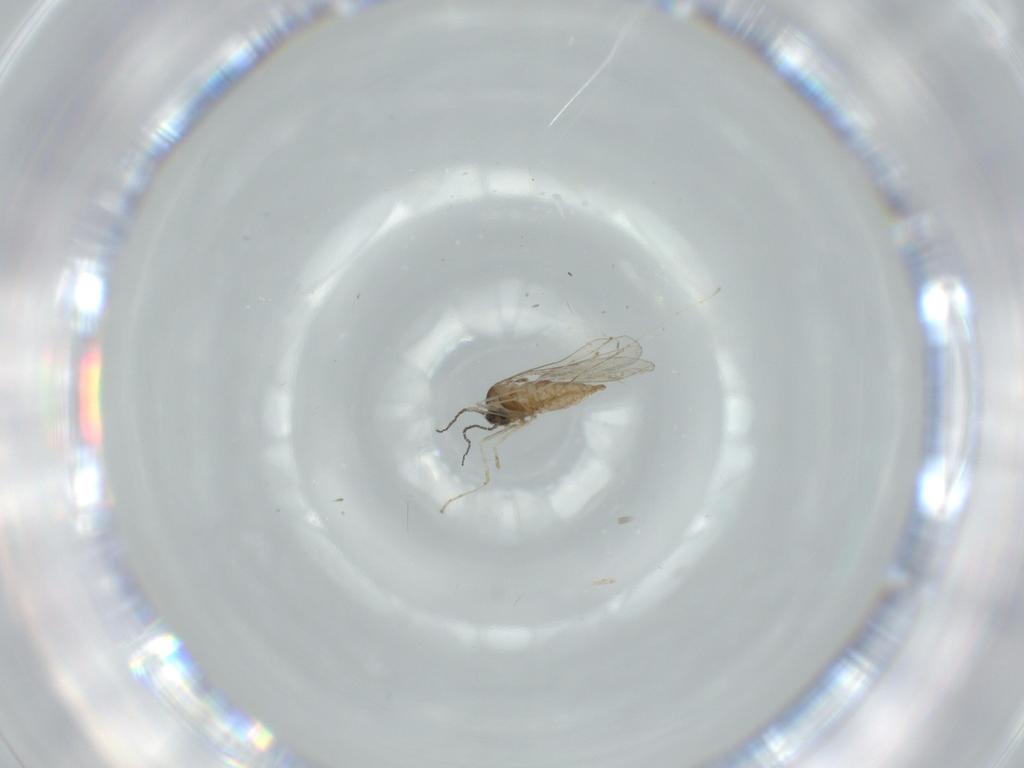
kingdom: Animalia
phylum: Arthropoda
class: Insecta
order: Diptera
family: Cecidomyiidae
